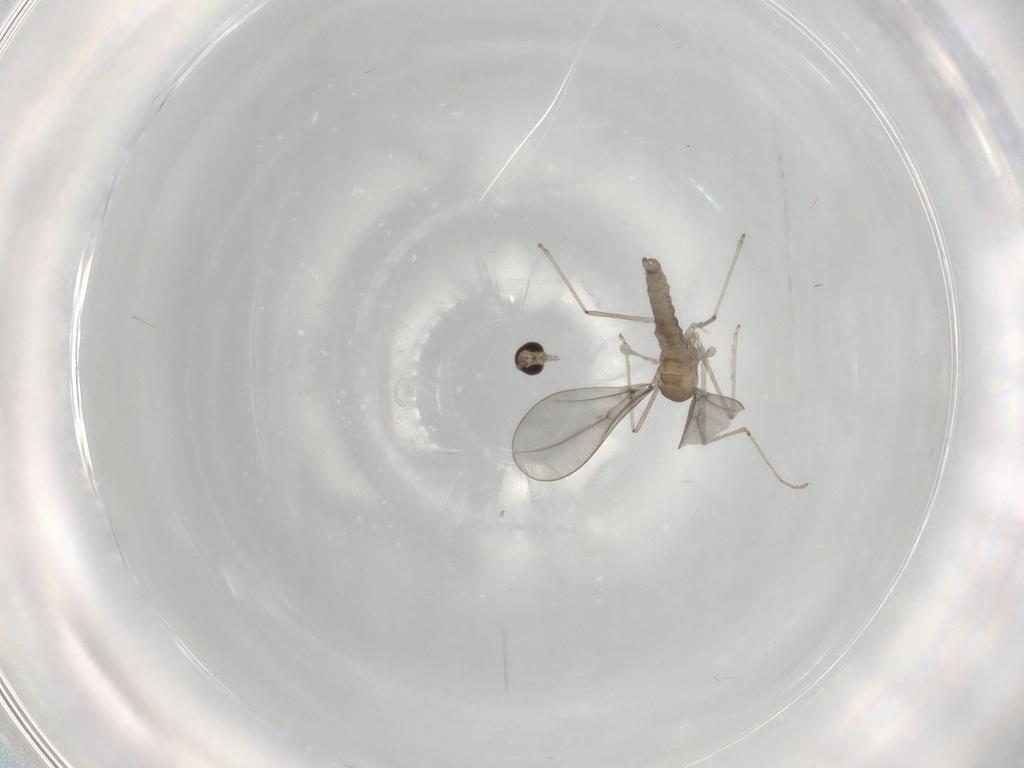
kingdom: Animalia
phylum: Arthropoda
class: Insecta
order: Diptera
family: Cecidomyiidae
